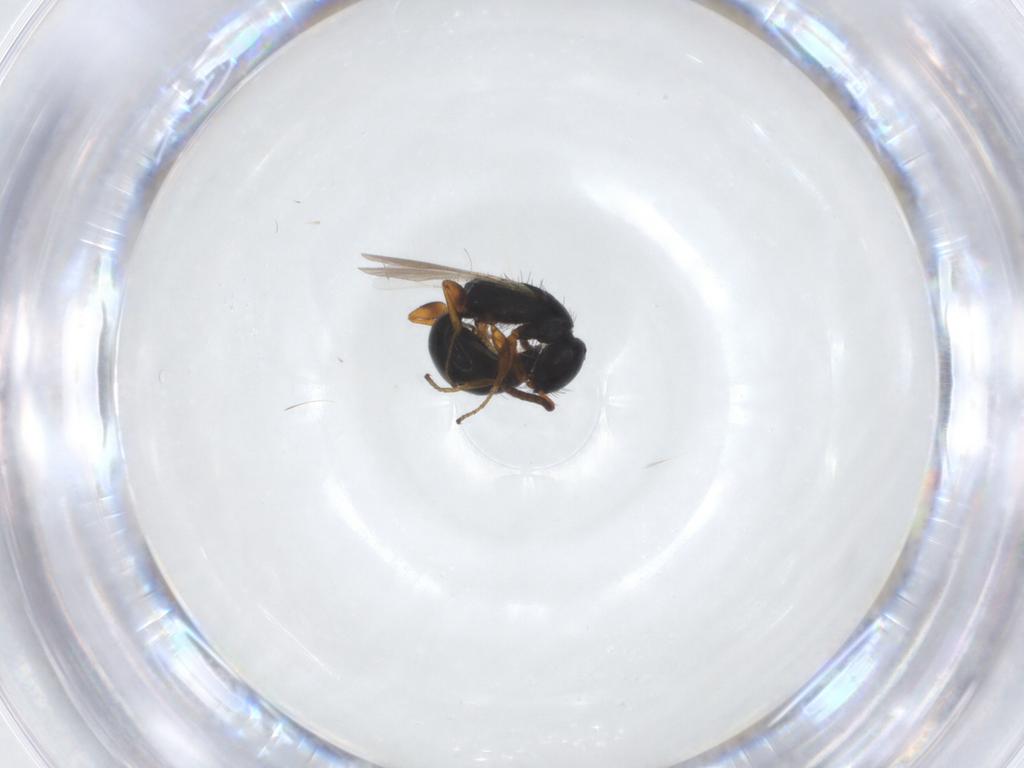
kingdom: Animalia
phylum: Arthropoda
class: Insecta
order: Hymenoptera
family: Bethylidae
